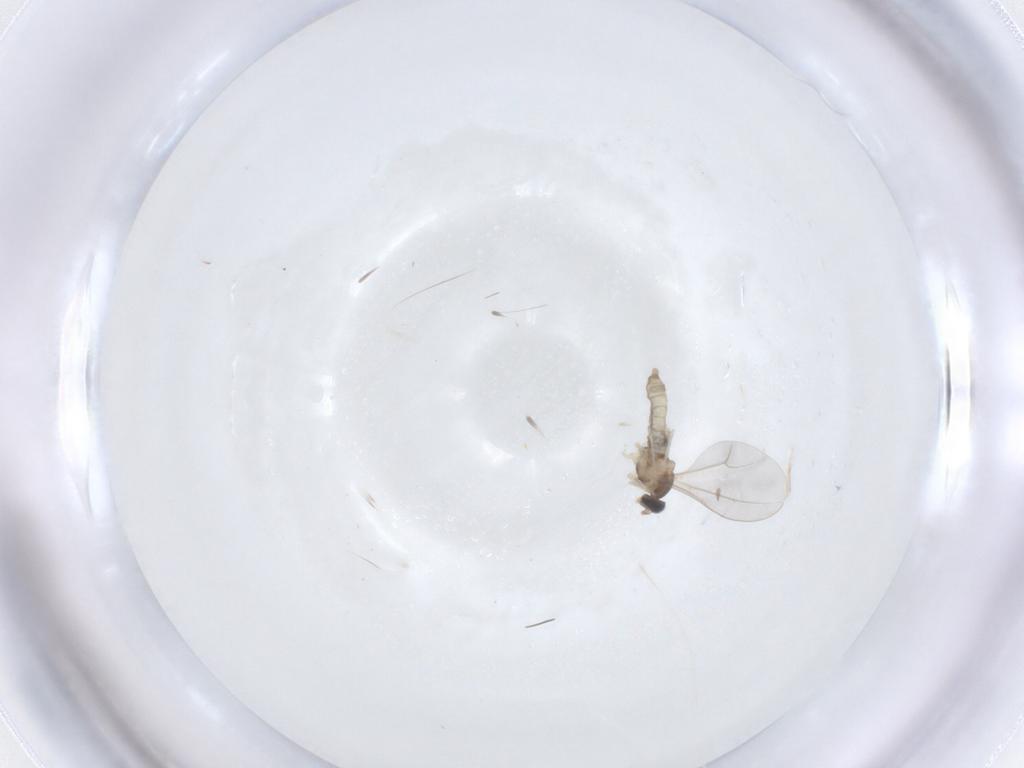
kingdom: Animalia
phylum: Arthropoda
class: Insecta
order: Diptera
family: Cecidomyiidae
